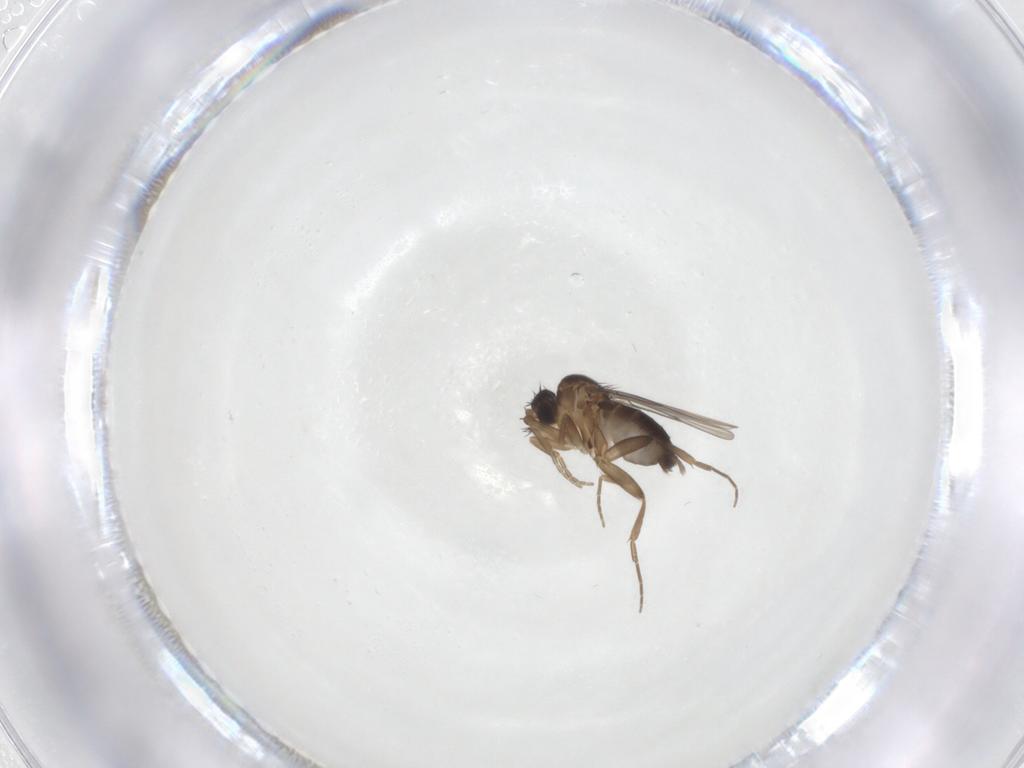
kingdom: Animalia
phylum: Arthropoda
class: Insecta
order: Diptera
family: Phoridae
